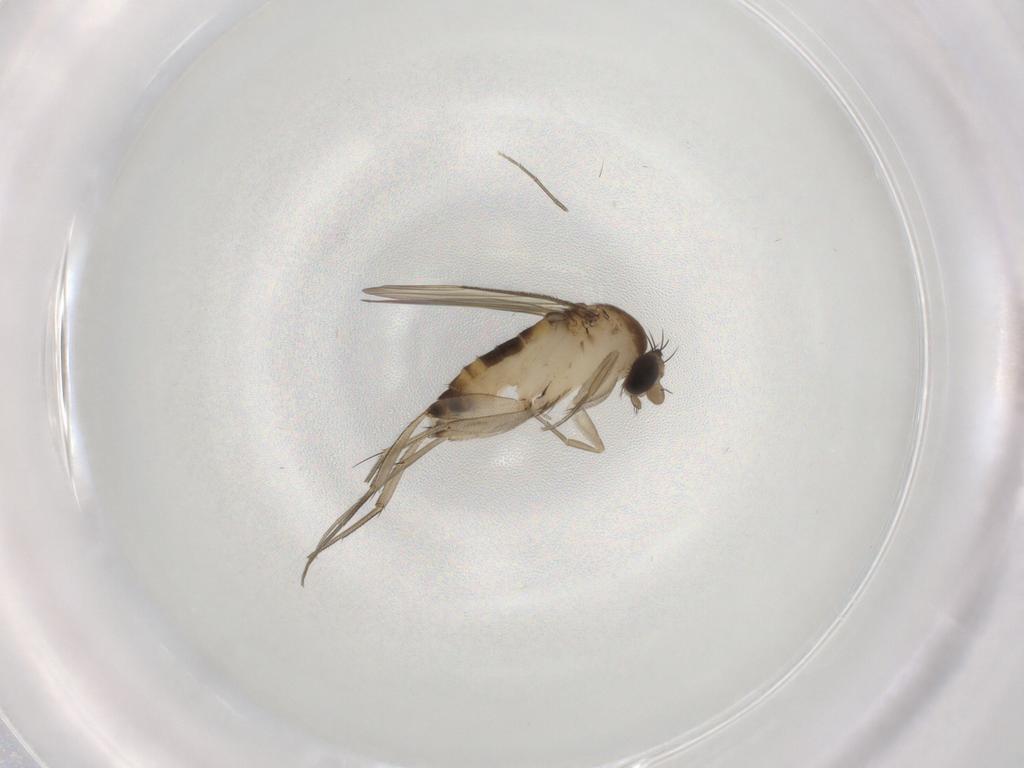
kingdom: Animalia
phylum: Arthropoda
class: Insecta
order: Diptera
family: Phoridae
